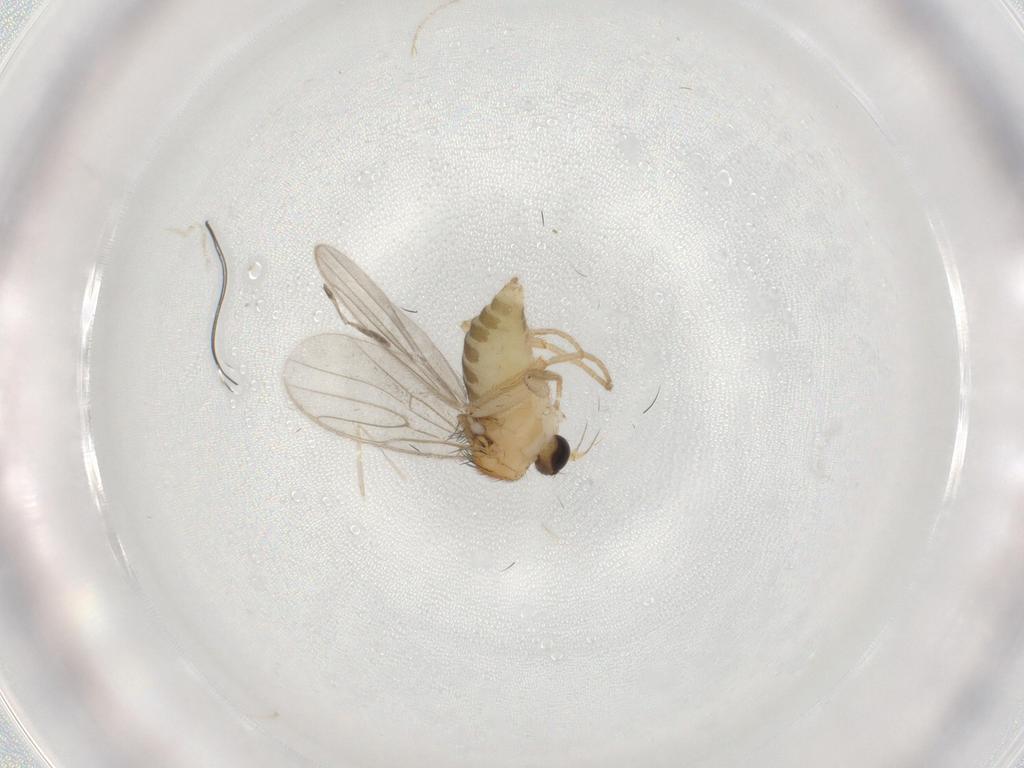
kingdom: Animalia
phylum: Arthropoda
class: Insecta
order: Diptera
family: Hybotidae
